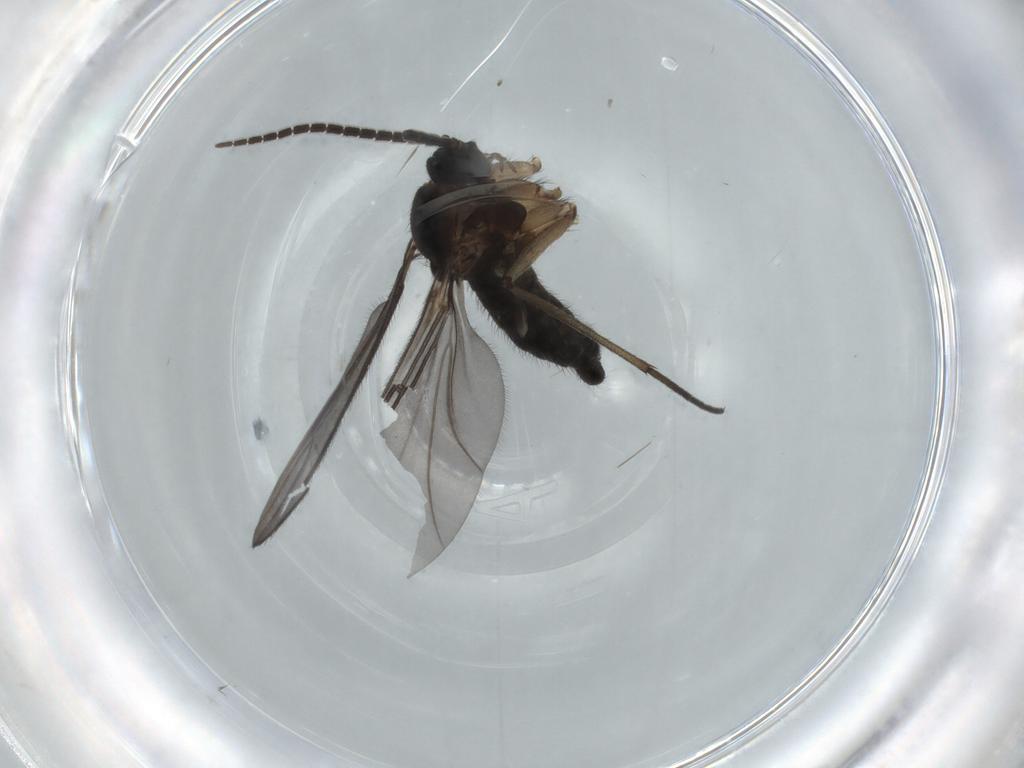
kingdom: Animalia
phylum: Arthropoda
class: Insecta
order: Diptera
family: Sciaridae
